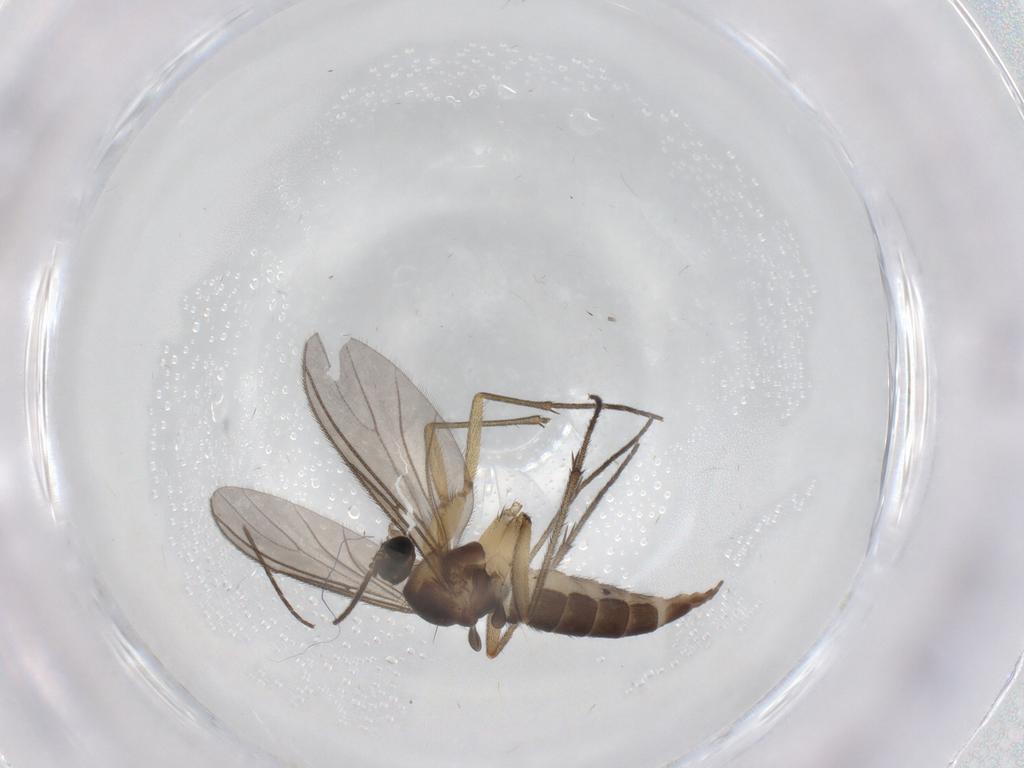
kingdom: Animalia
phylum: Arthropoda
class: Insecta
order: Diptera
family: Sciaridae
